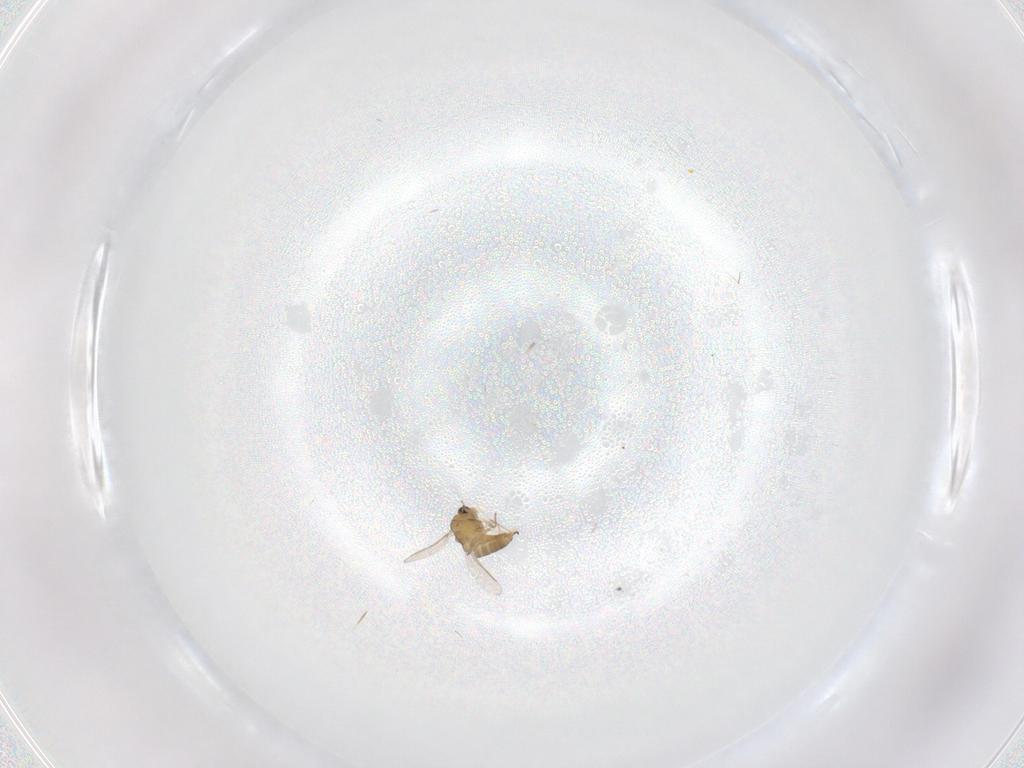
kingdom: Animalia
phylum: Arthropoda
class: Insecta
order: Diptera
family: Chironomidae
